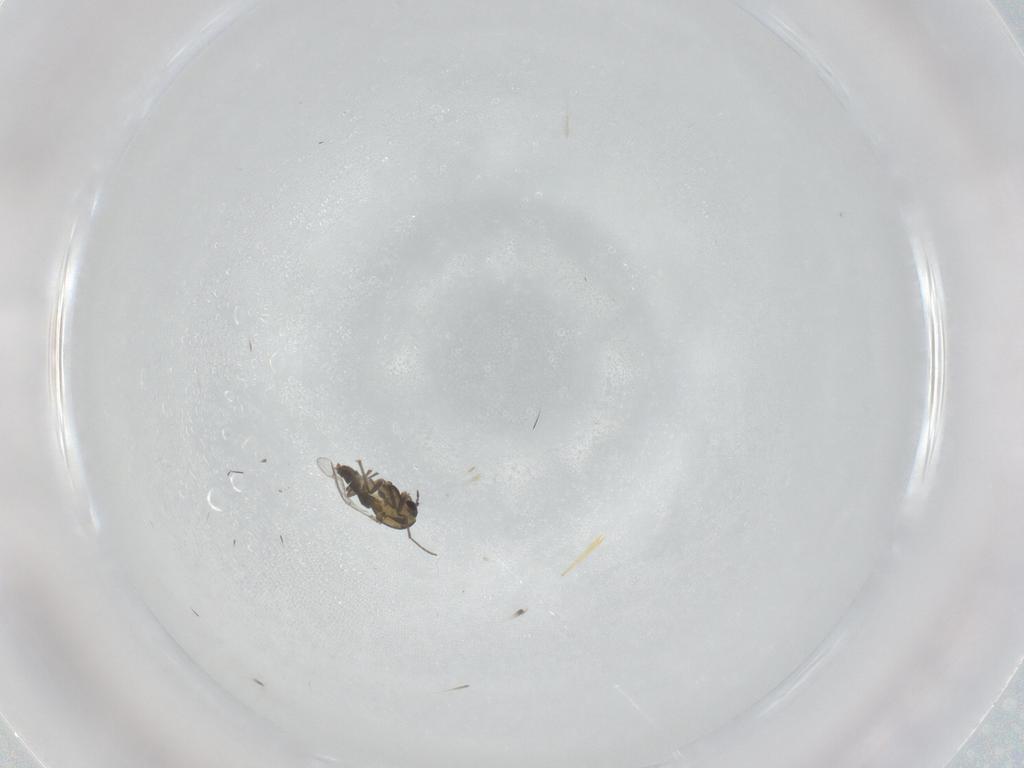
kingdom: Animalia
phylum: Arthropoda
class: Insecta
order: Diptera
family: Chironomidae
